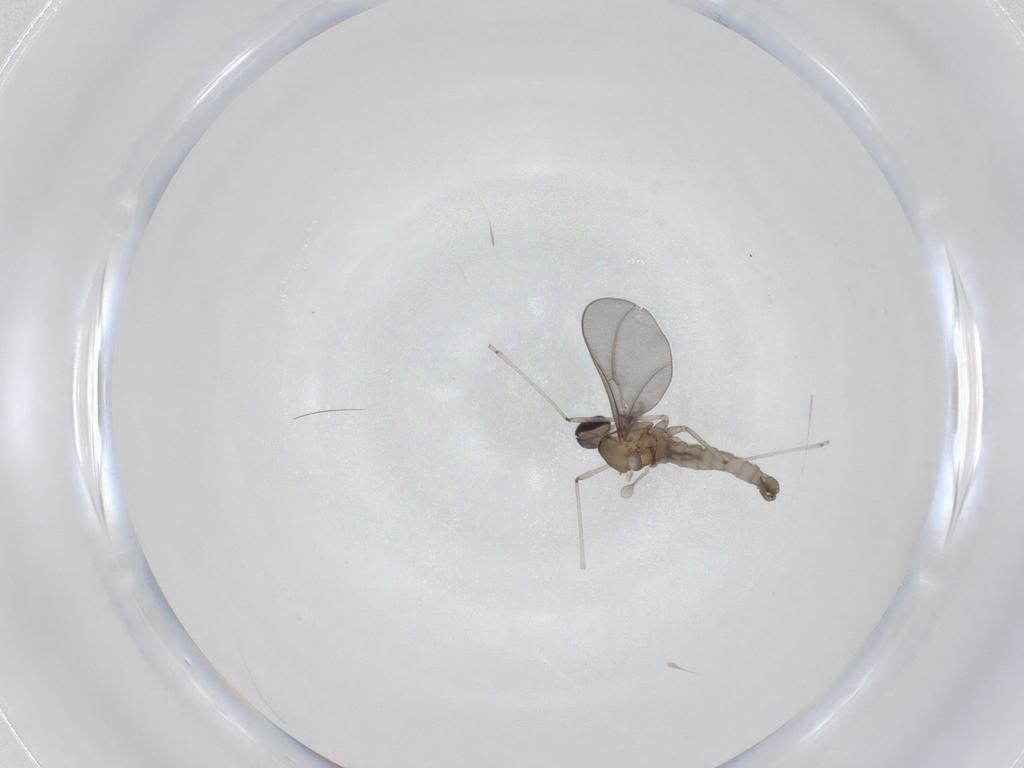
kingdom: Animalia
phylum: Arthropoda
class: Insecta
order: Diptera
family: Cecidomyiidae
